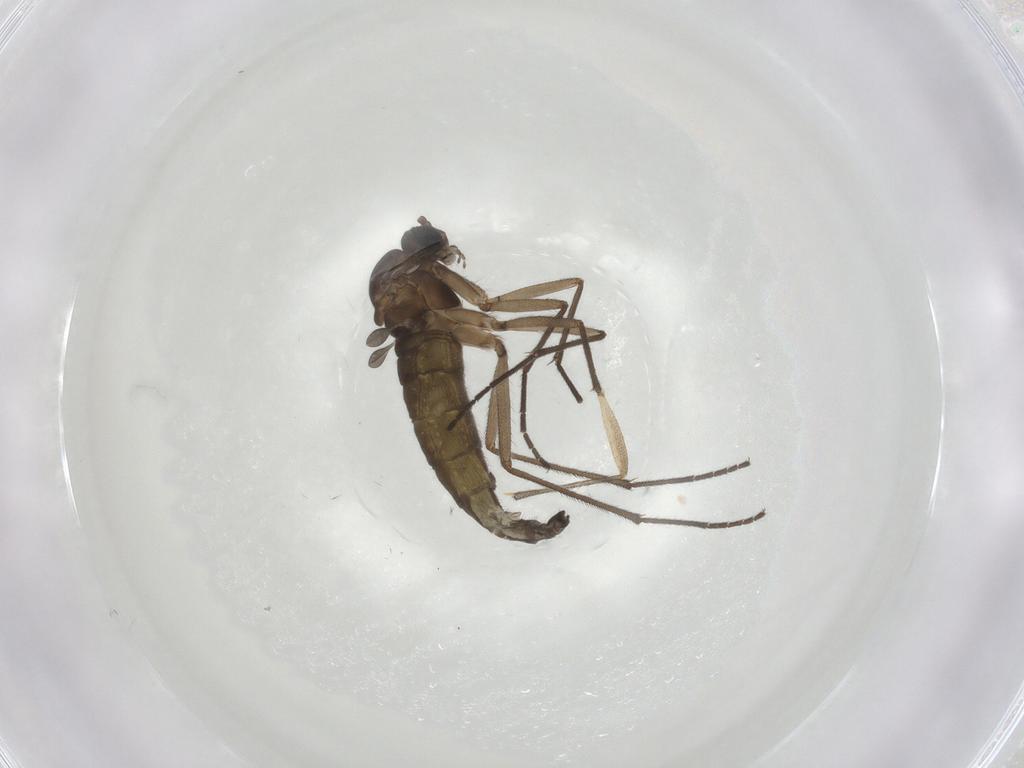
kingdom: Animalia
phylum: Arthropoda
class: Insecta
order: Diptera
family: Sciaridae
